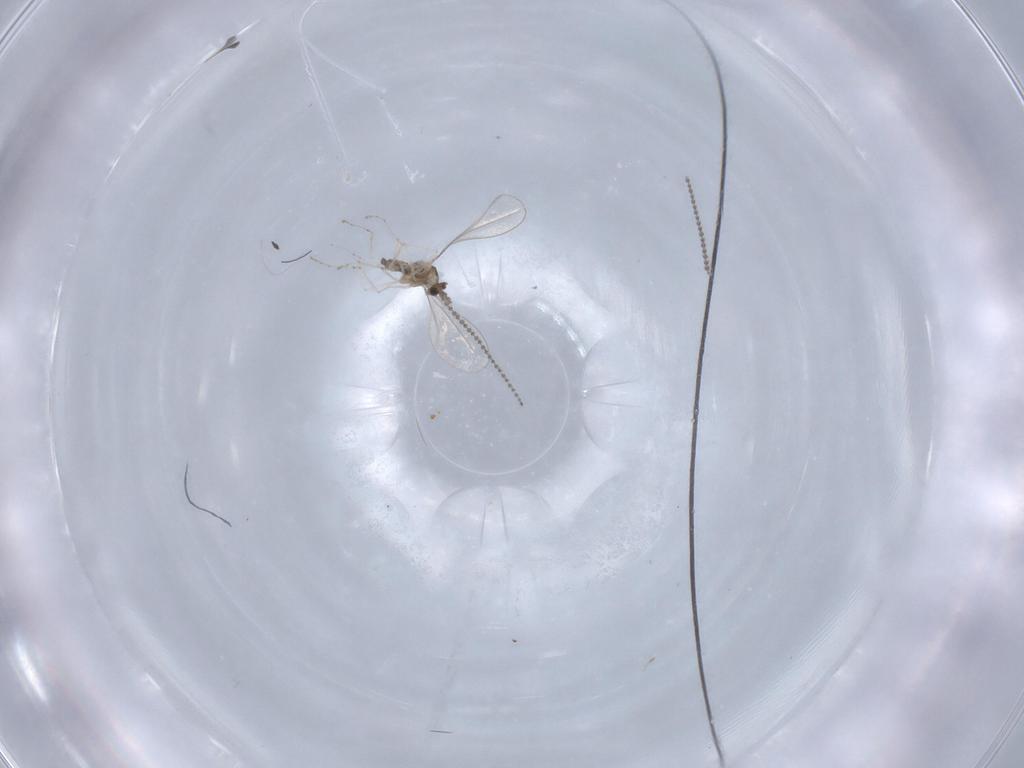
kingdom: Animalia
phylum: Arthropoda
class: Insecta
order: Diptera
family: Cecidomyiidae
